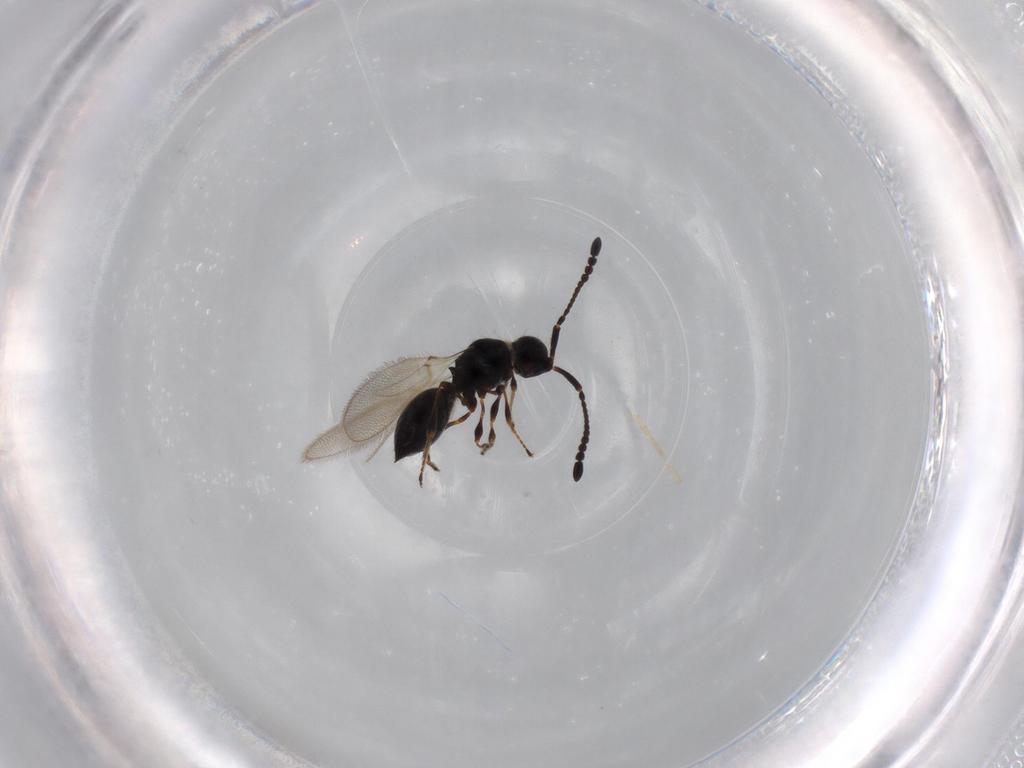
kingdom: Animalia
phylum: Arthropoda
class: Insecta
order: Hymenoptera
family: Diapriidae
